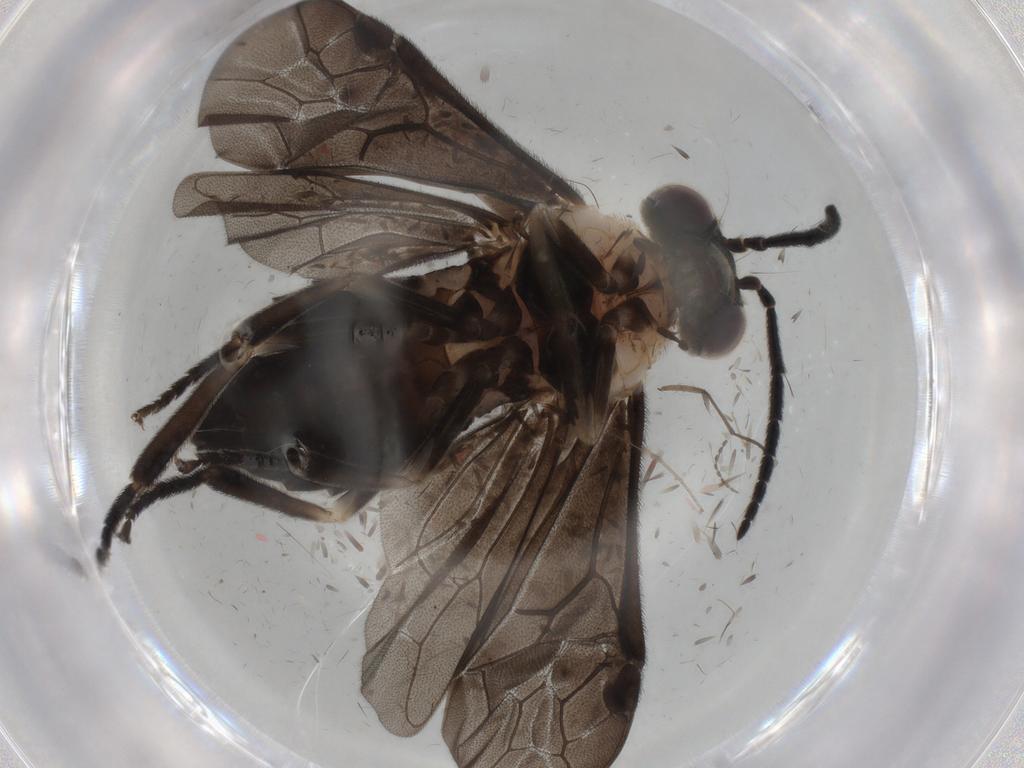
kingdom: Animalia
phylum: Arthropoda
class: Insecta
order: Hymenoptera
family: Tenthredinidae
